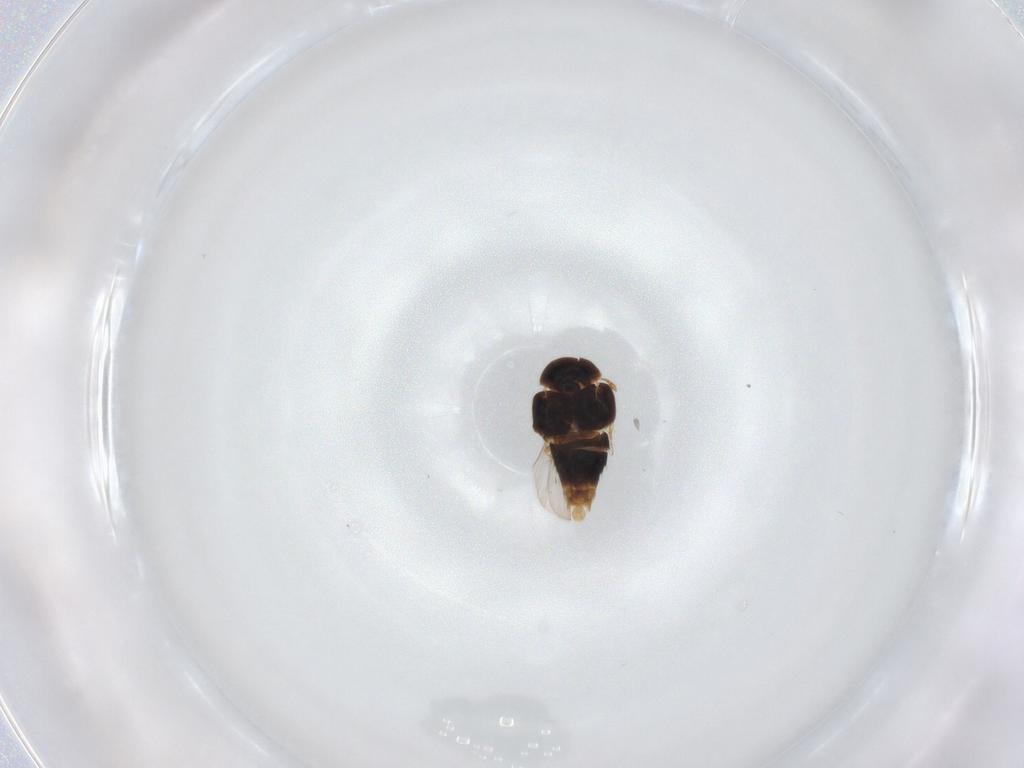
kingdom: Animalia
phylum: Arthropoda
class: Insecta
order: Coleoptera
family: Staphylinidae
